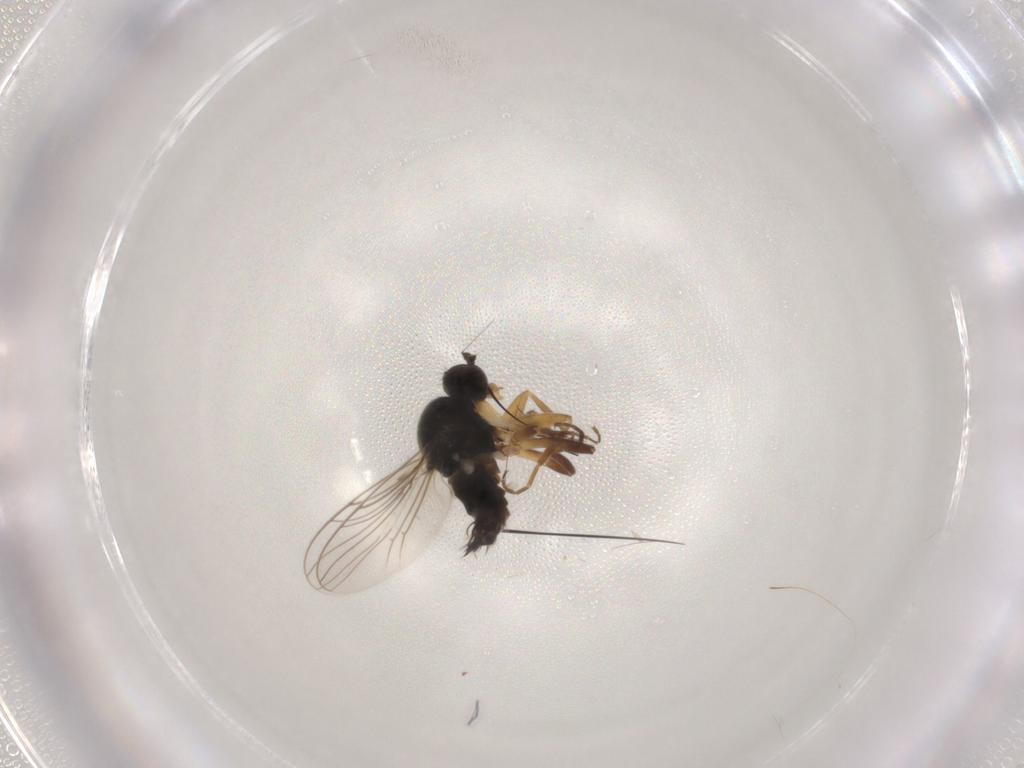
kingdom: Animalia
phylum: Arthropoda
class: Insecta
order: Diptera
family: Hybotidae
